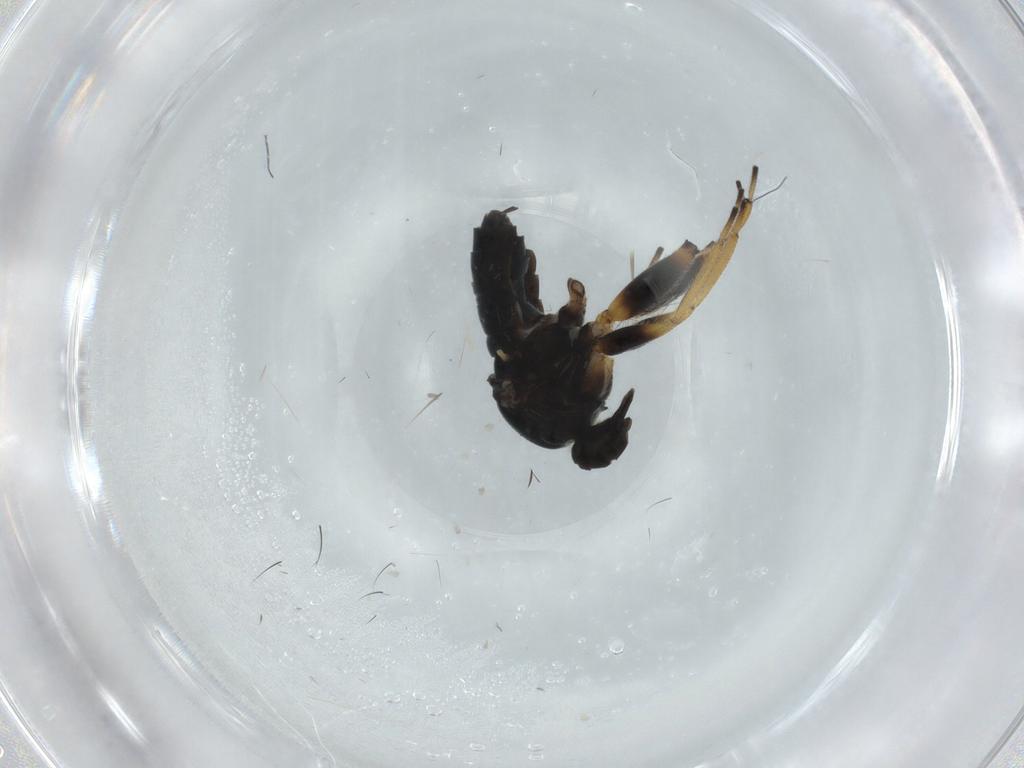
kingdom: Animalia
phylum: Arthropoda
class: Insecta
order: Diptera
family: Hybotidae
